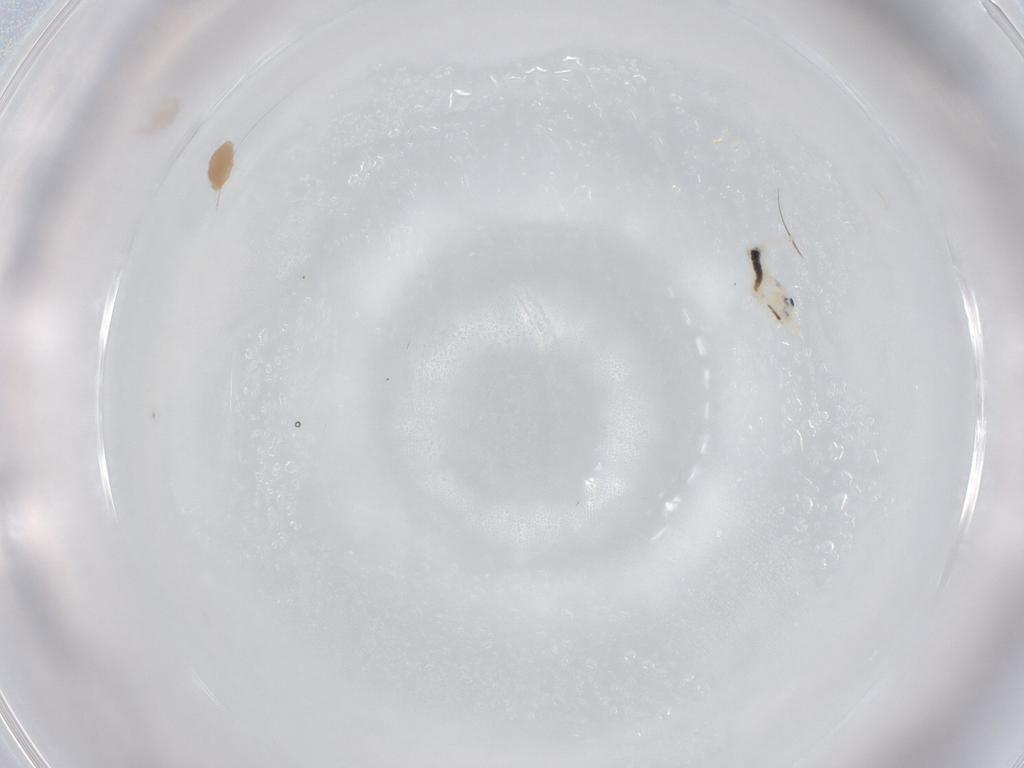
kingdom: Animalia
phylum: Arthropoda
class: Collembola
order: Entomobryomorpha
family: Entomobryidae
